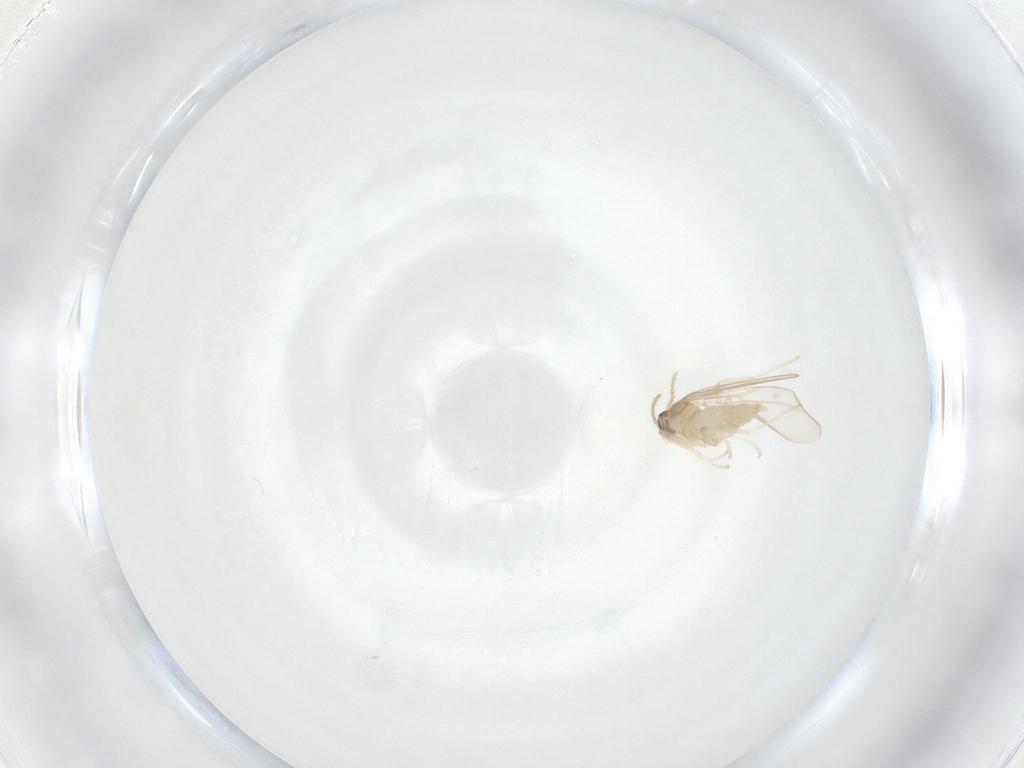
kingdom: Animalia
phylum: Arthropoda
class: Insecta
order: Diptera
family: Cecidomyiidae
